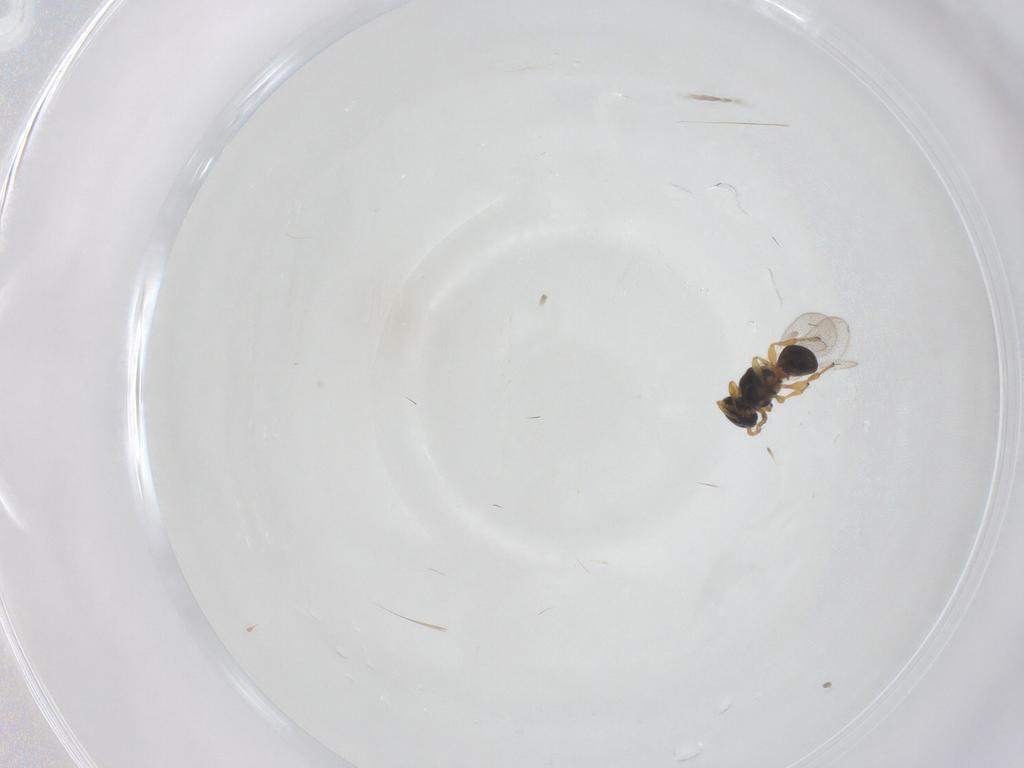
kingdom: Animalia
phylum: Arthropoda
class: Insecta
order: Hymenoptera
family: Platygastridae
